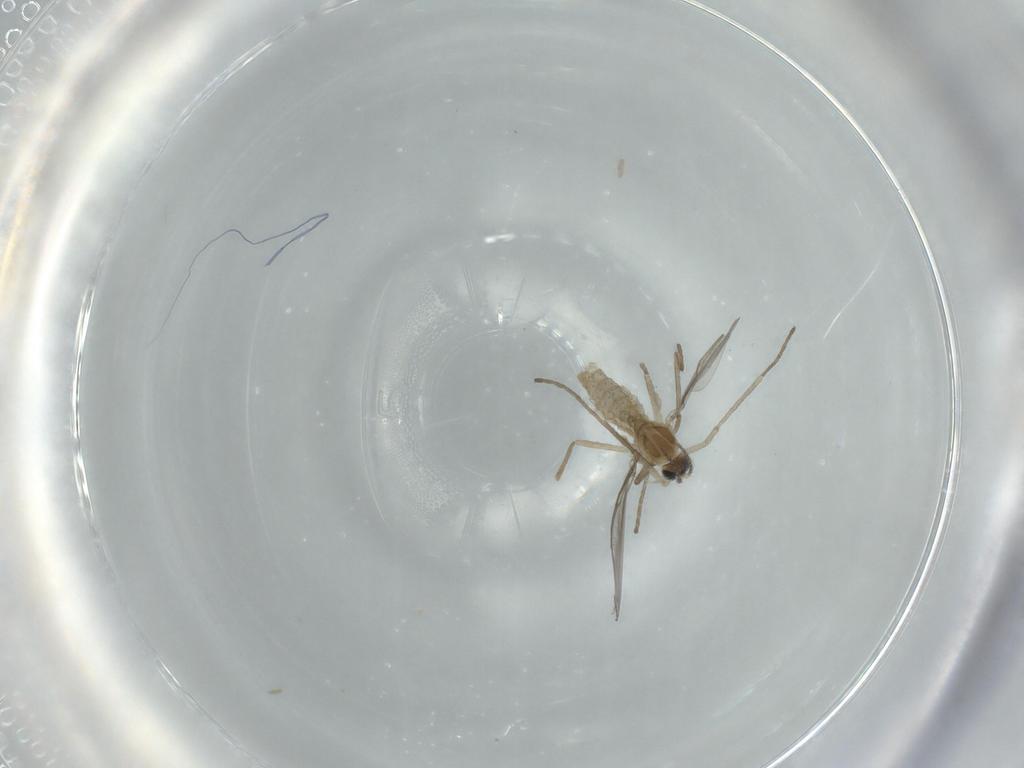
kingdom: Animalia
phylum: Arthropoda
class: Insecta
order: Diptera
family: Cecidomyiidae
